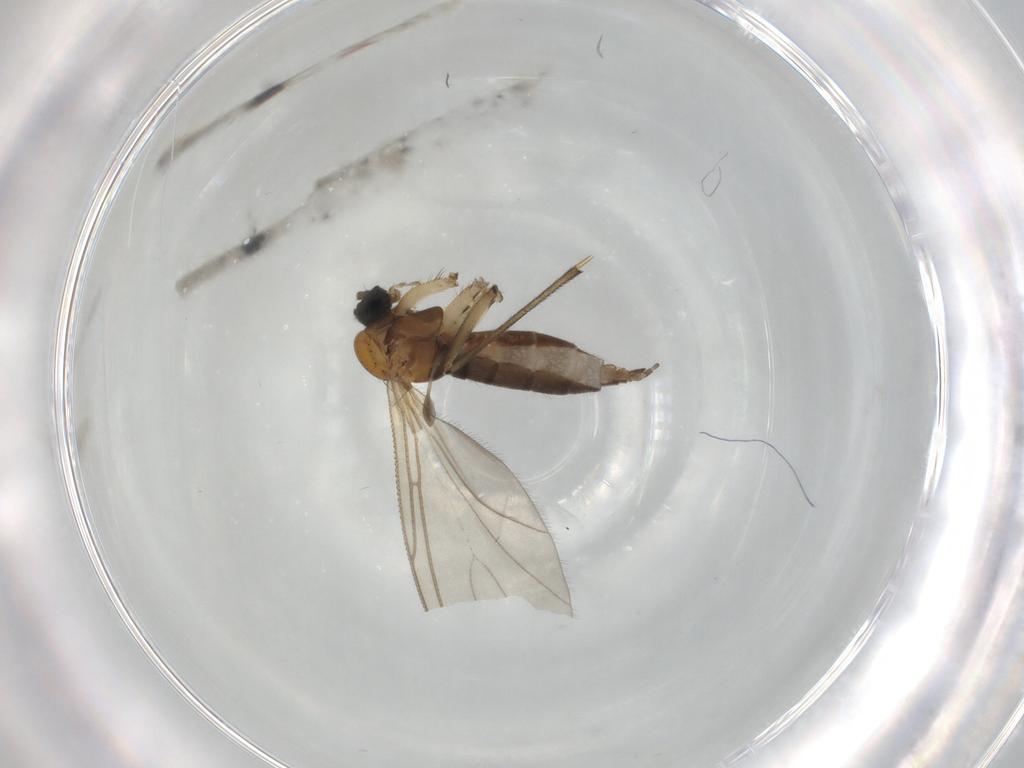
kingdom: Animalia
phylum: Arthropoda
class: Insecta
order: Diptera
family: Sciaridae
